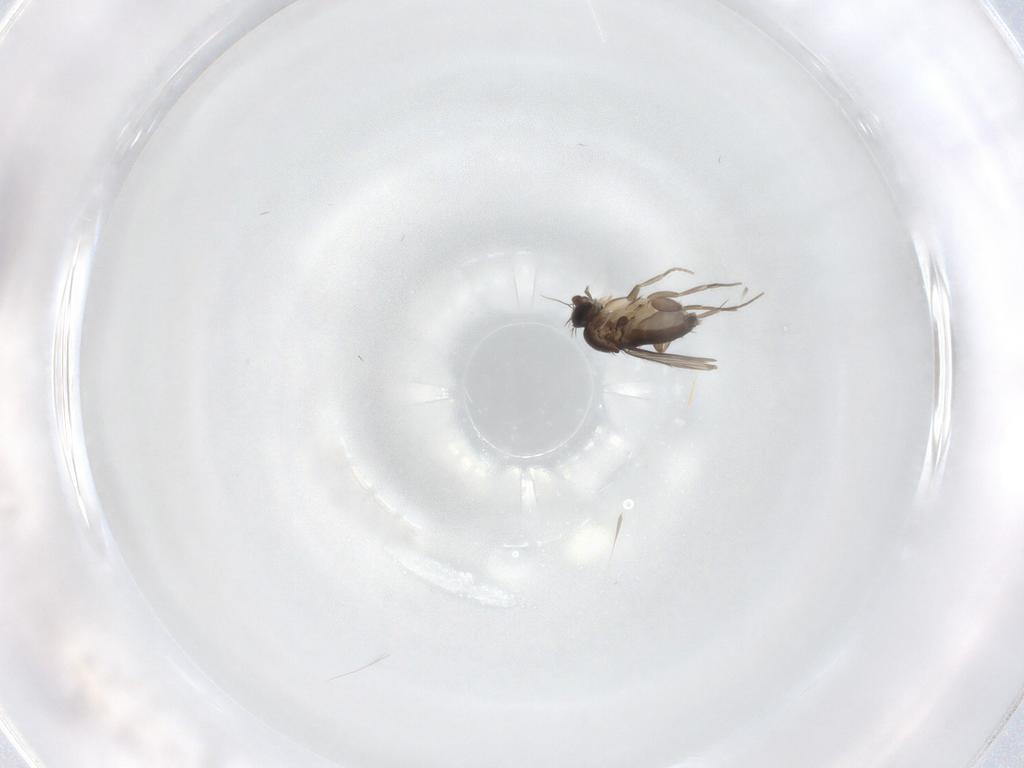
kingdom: Animalia
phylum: Arthropoda
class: Insecta
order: Diptera
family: Phoridae
